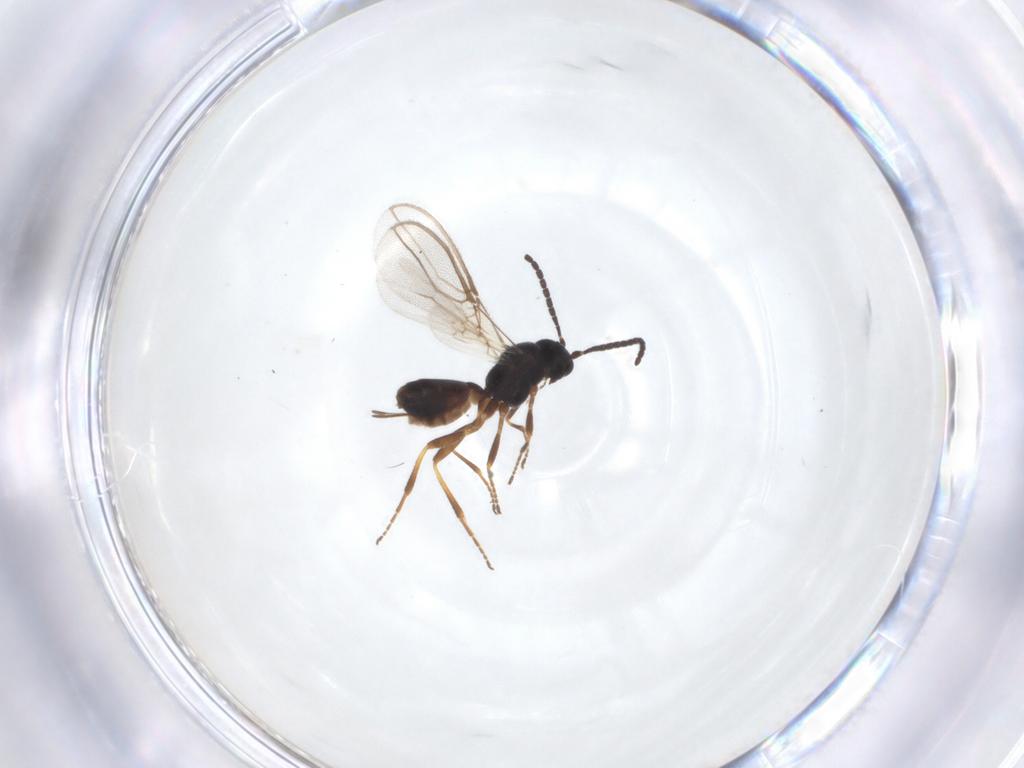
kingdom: Animalia
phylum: Arthropoda
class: Insecta
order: Hymenoptera
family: Braconidae
